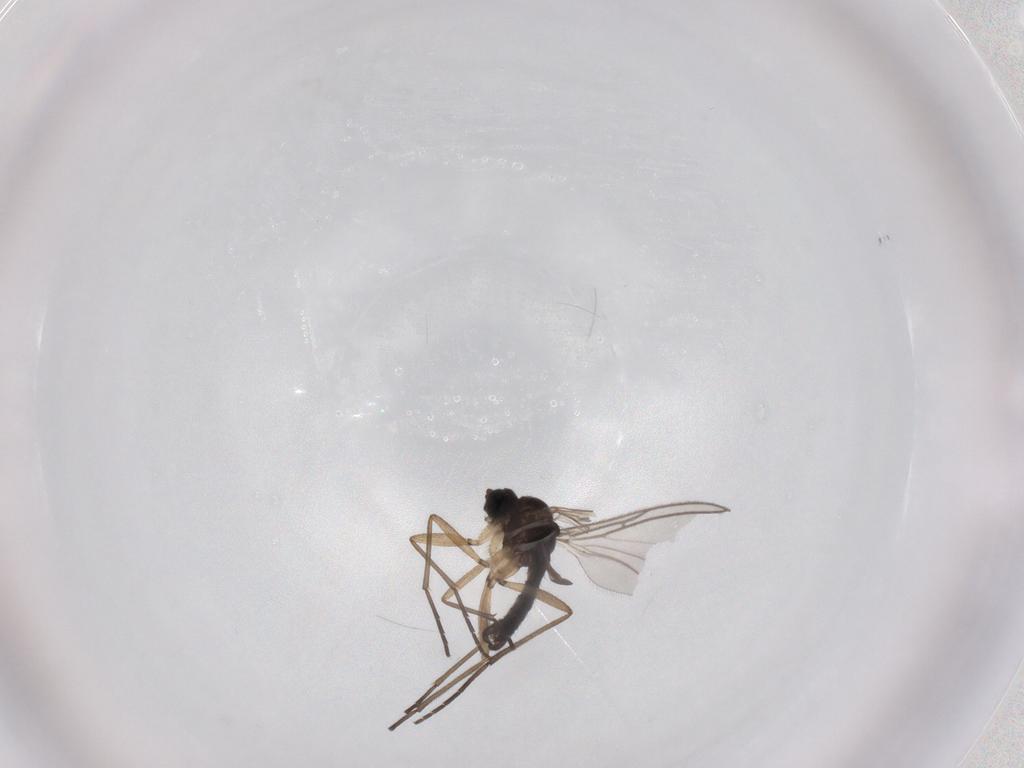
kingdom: Animalia
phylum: Arthropoda
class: Insecta
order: Diptera
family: Sciaridae
